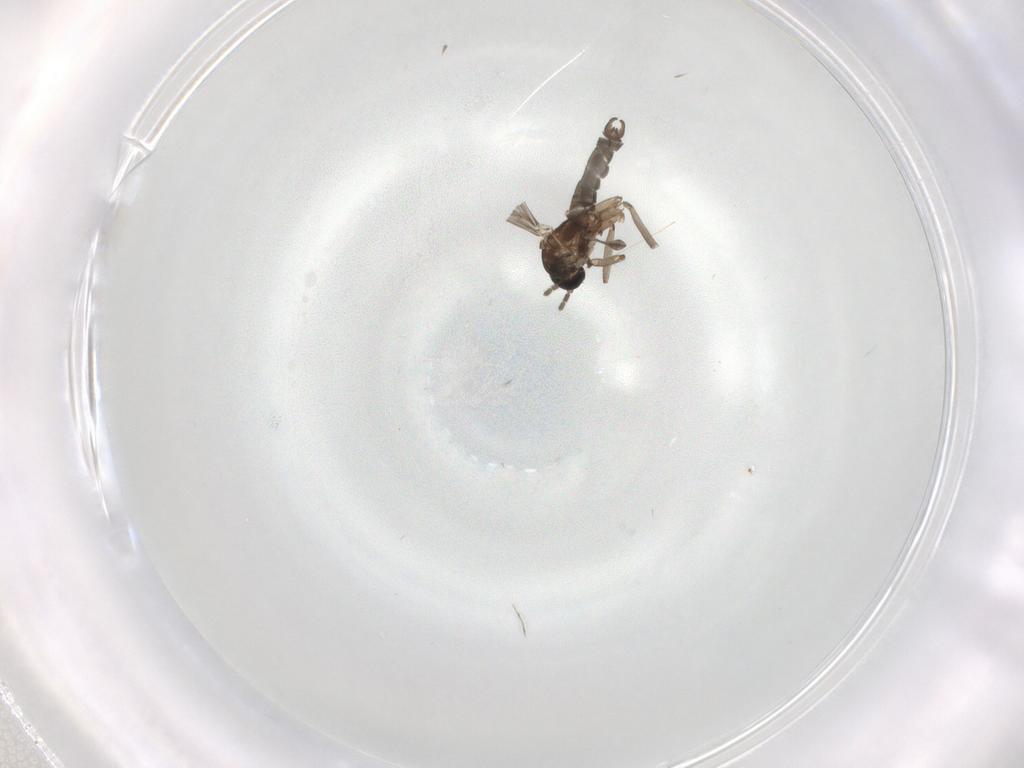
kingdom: Animalia
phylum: Arthropoda
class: Insecta
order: Diptera
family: Sciaridae
